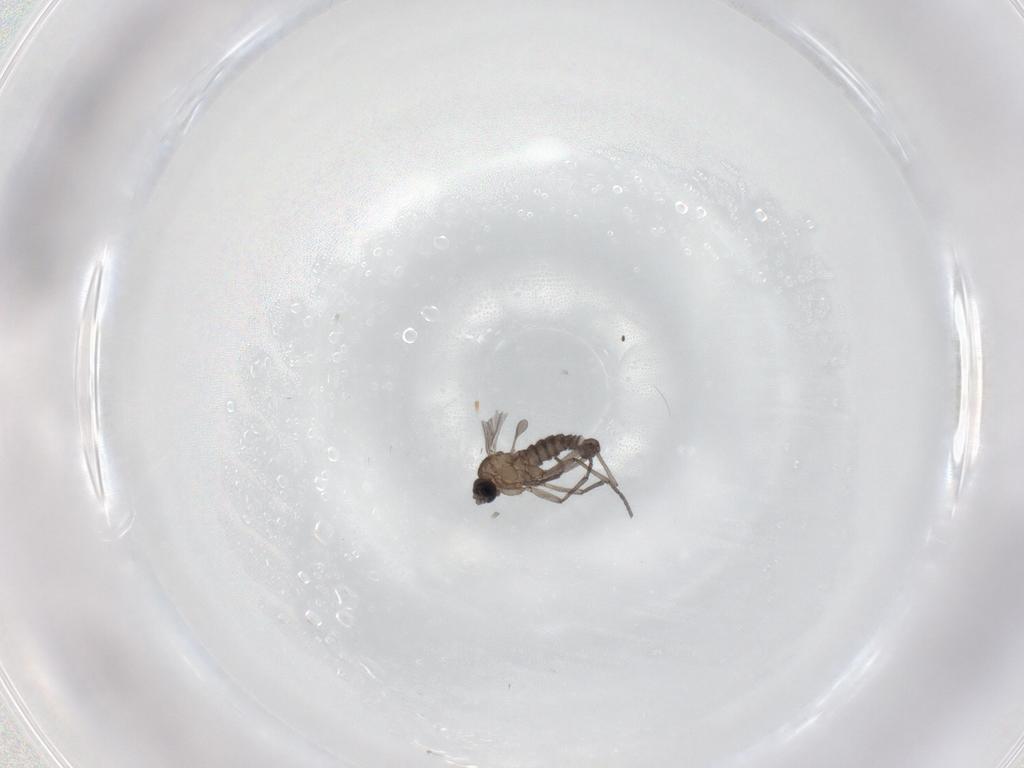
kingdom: Animalia
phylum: Arthropoda
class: Insecta
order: Diptera
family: Sciaridae
